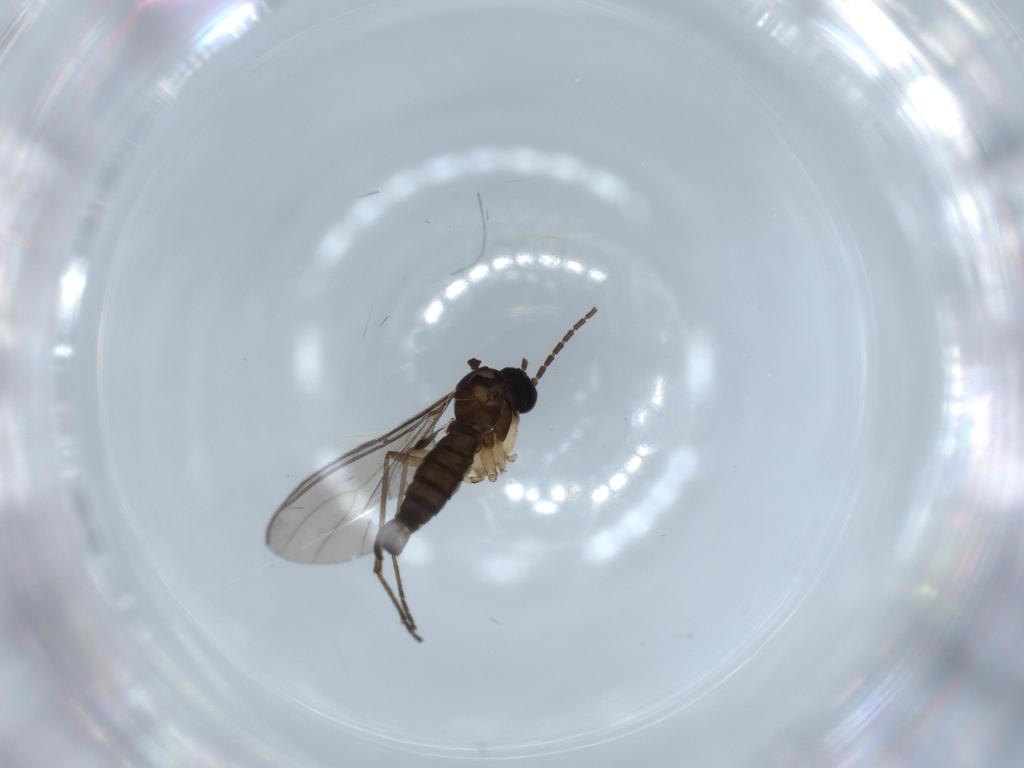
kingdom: Animalia
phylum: Arthropoda
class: Insecta
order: Diptera
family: Sciaridae
